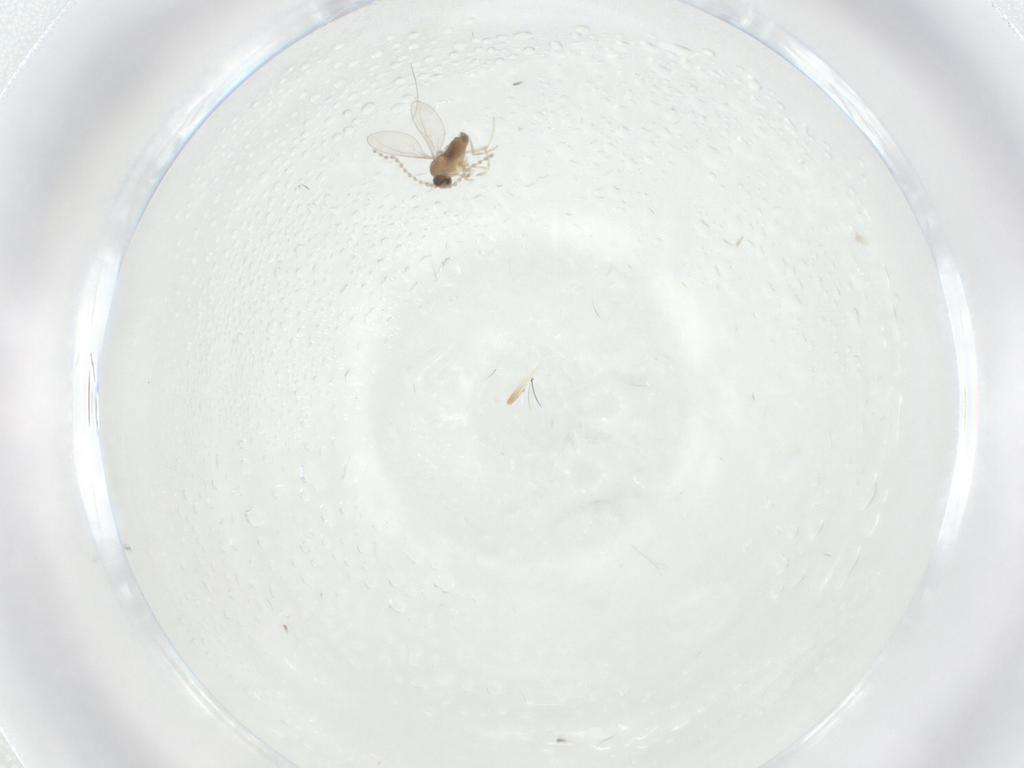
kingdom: Animalia
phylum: Arthropoda
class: Insecta
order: Diptera
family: Cecidomyiidae
